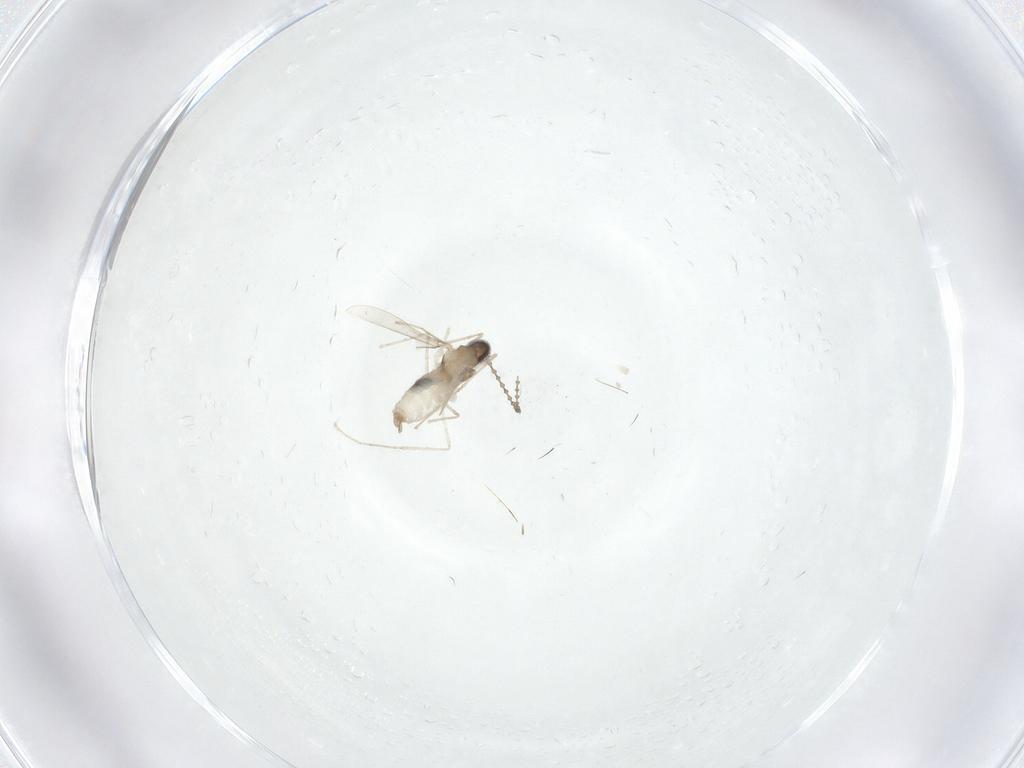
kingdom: Animalia
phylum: Arthropoda
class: Insecta
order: Diptera
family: Cecidomyiidae
